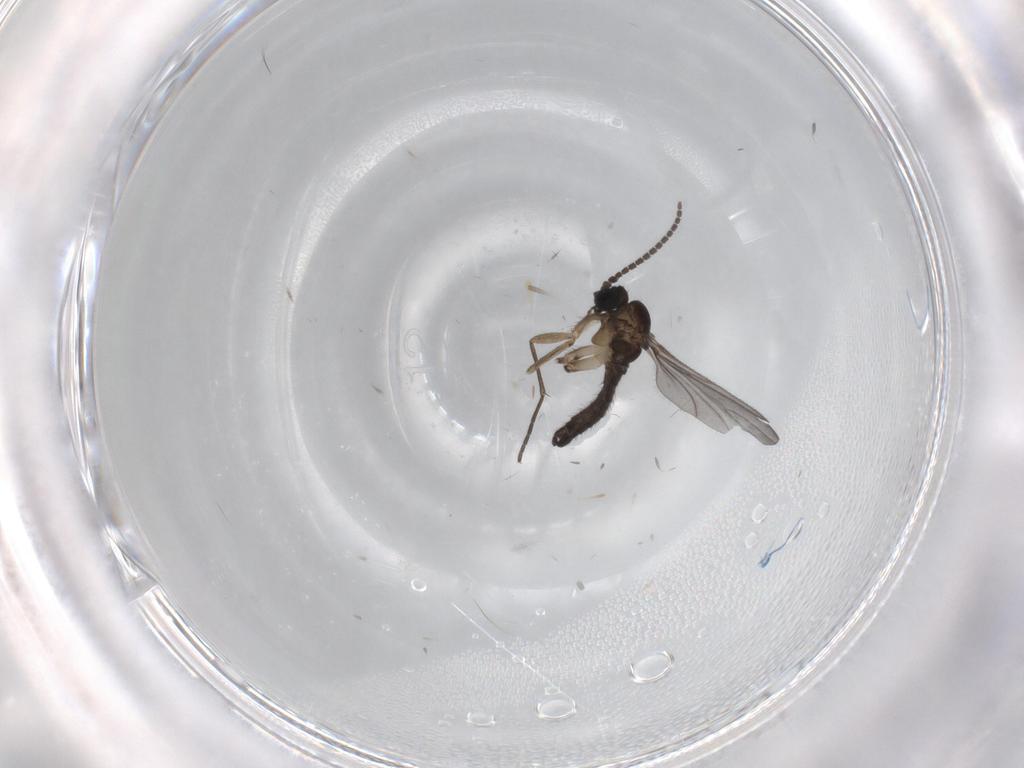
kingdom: Animalia
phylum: Arthropoda
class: Insecta
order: Diptera
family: Sciaridae
